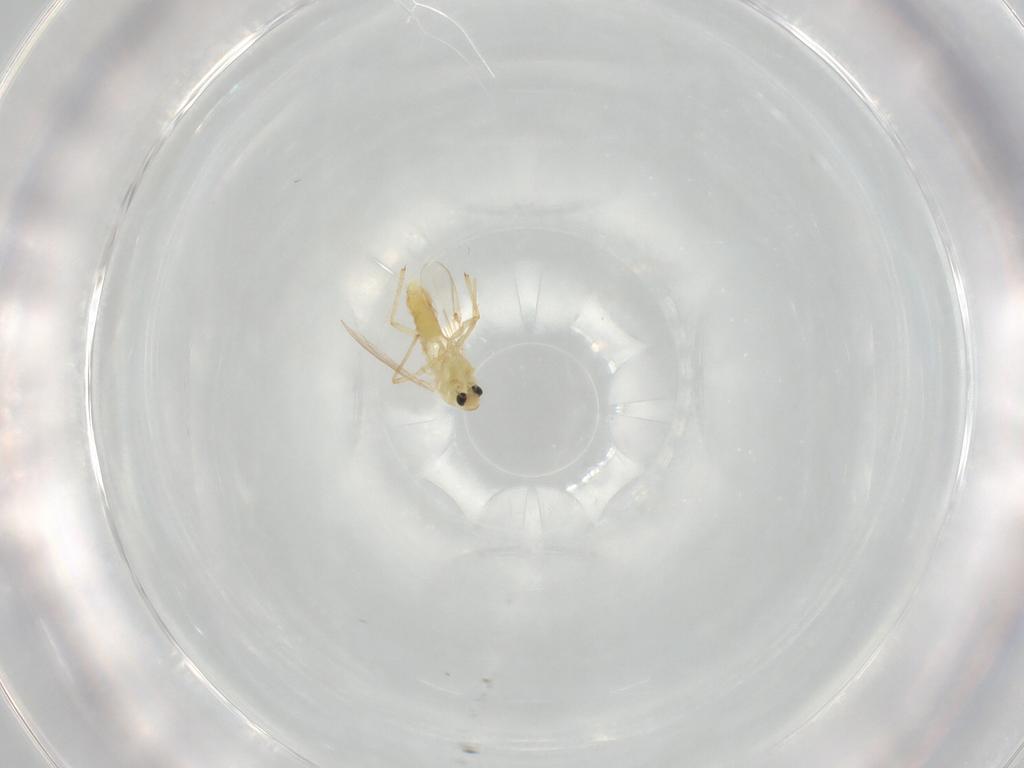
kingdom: Animalia
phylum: Arthropoda
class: Insecta
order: Diptera
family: Chironomidae
